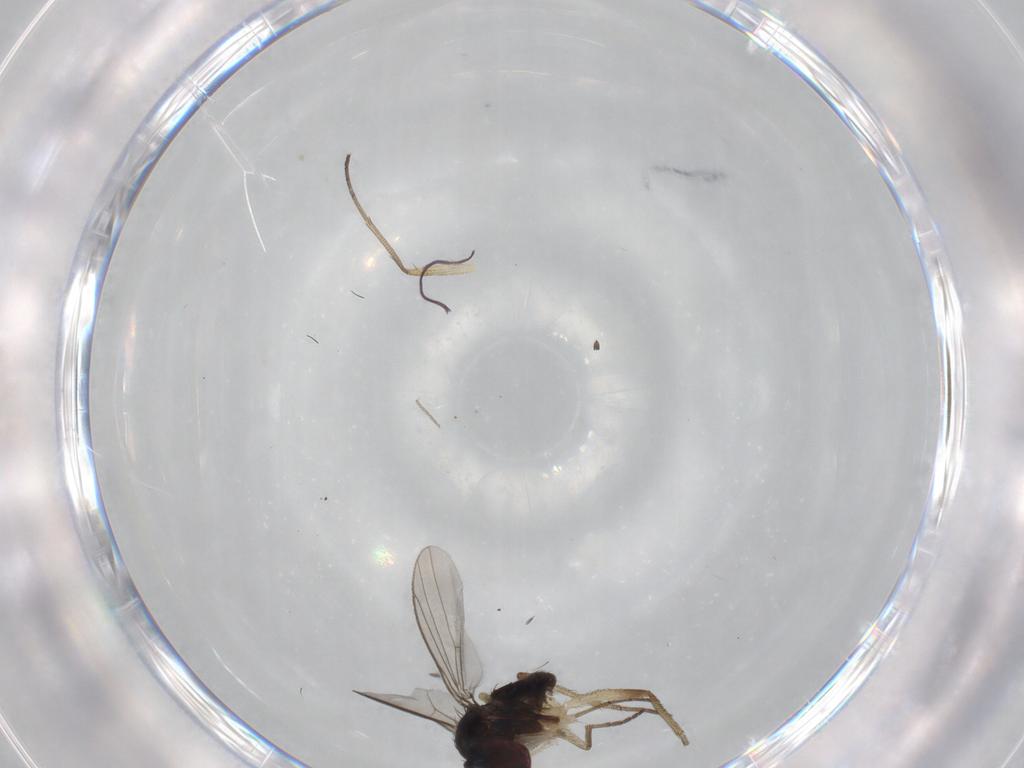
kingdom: Animalia
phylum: Arthropoda
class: Insecta
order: Diptera
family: Dolichopodidae
